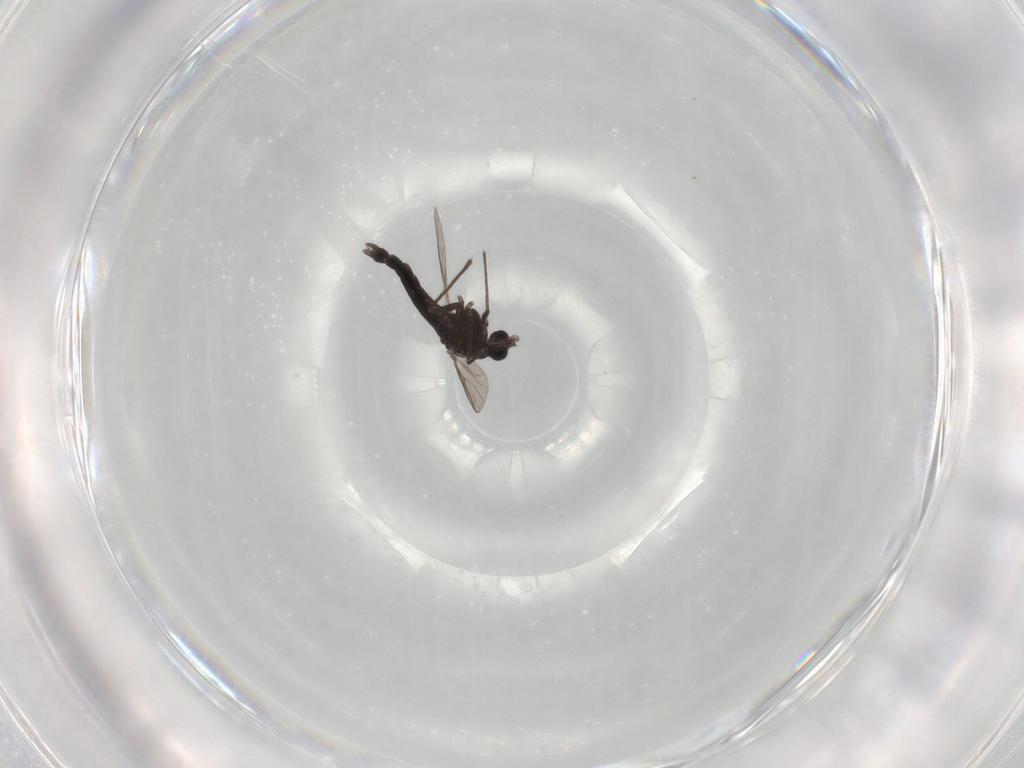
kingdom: Animalia
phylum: Arthropoda
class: Insecta
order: Diptera
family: Chironomidae
